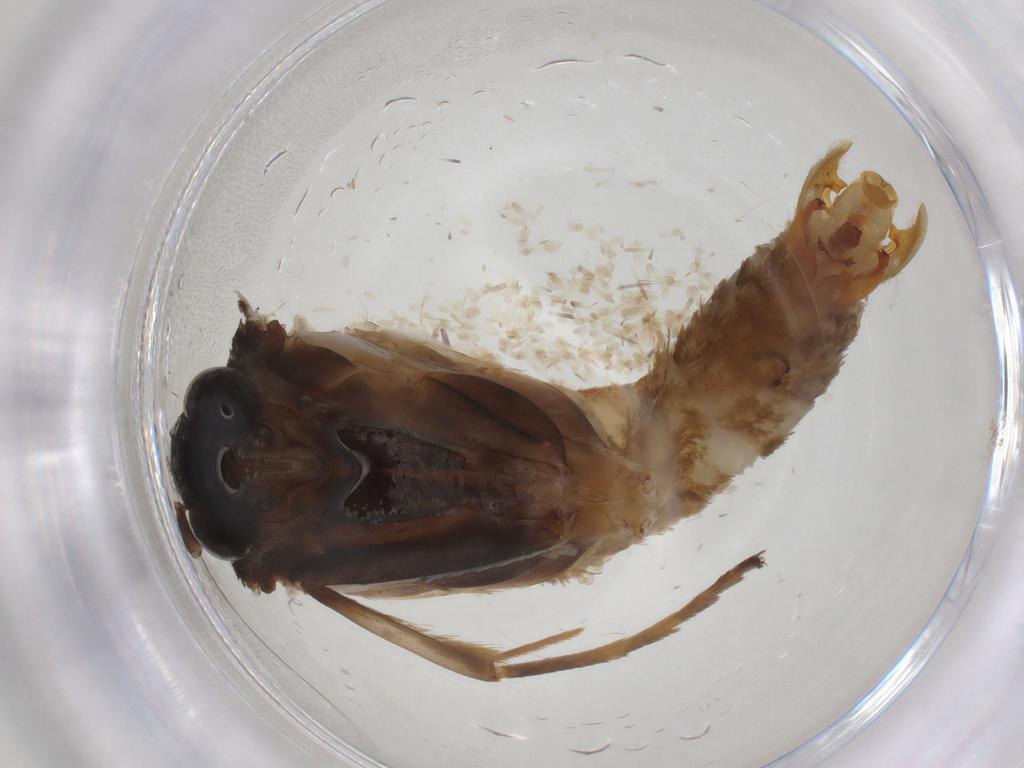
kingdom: Animalia
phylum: Arthropoda
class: Insecta
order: Lepidoptera
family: Oecophoridae
